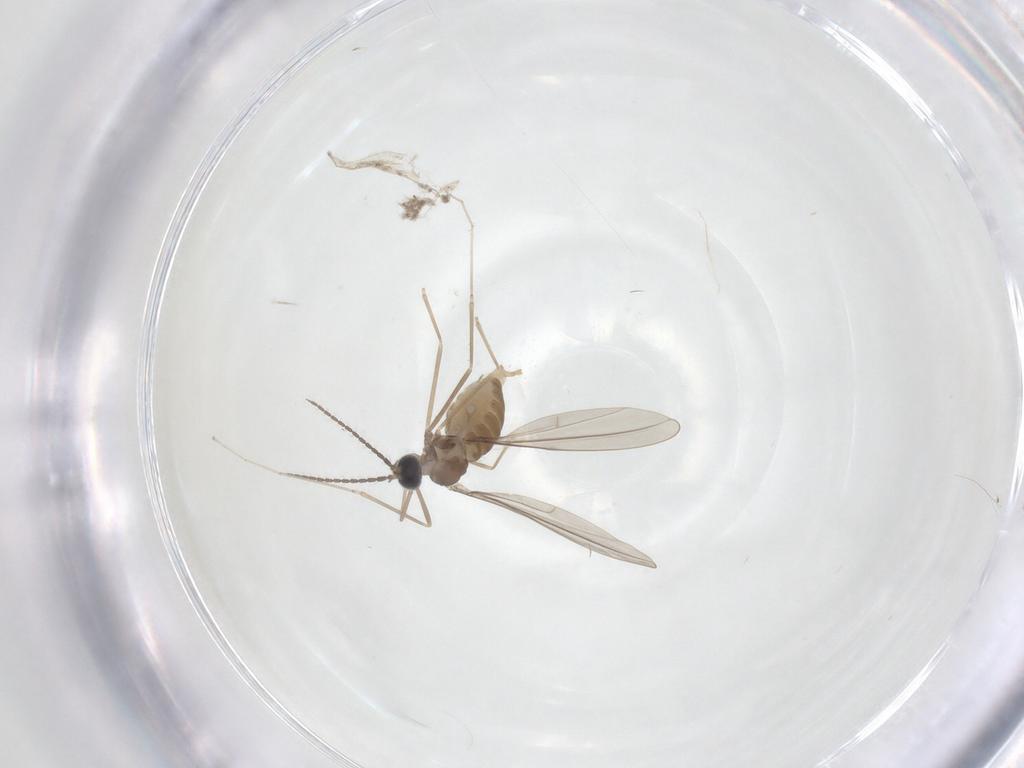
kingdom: Animalia
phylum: Arthropoda
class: Insecta
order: Diptera
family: Cecidomyiidae
